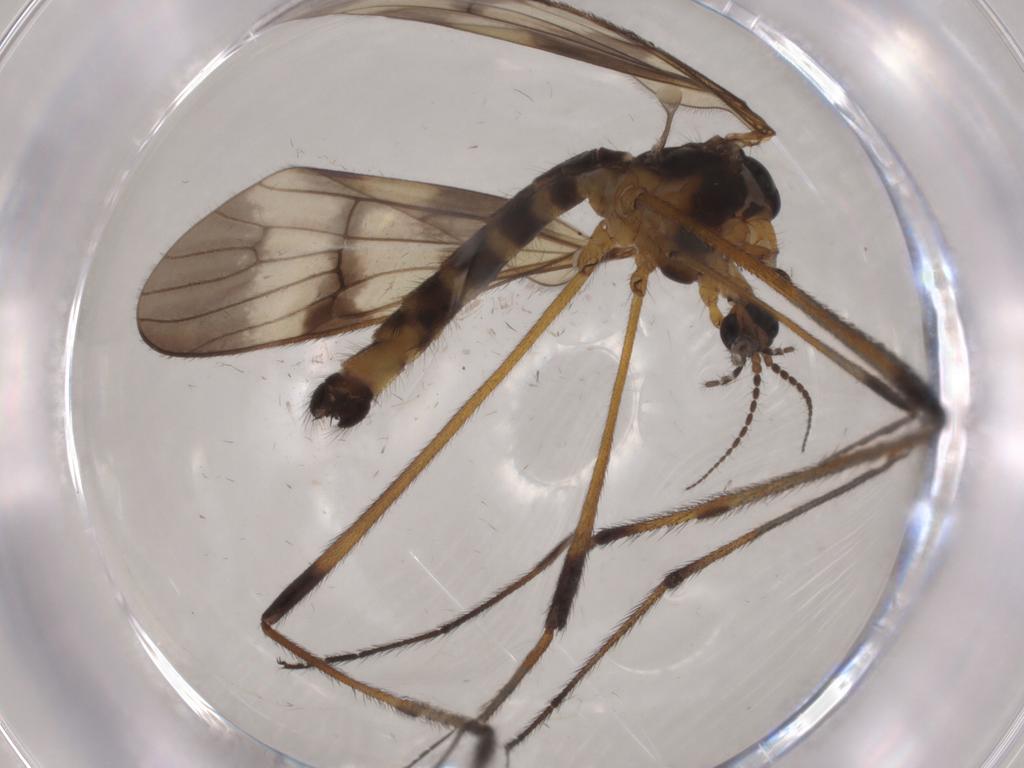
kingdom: Animalia
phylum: Arthropoda
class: Insecta
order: Diptera
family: Limoniidae
